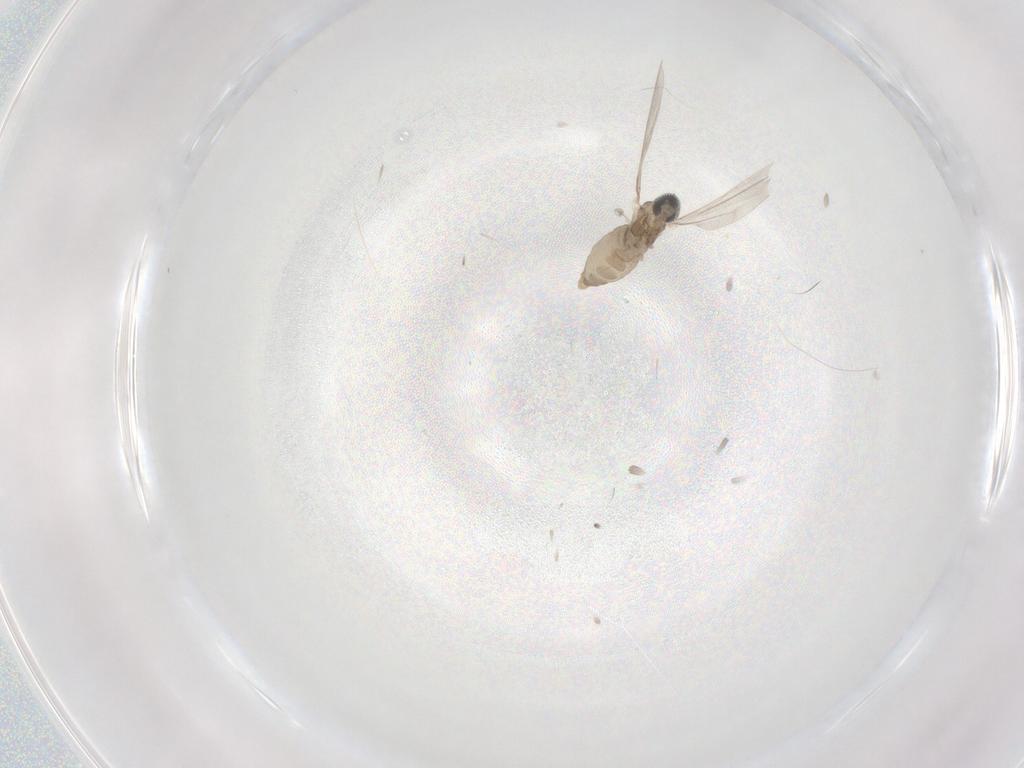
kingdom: Animalia
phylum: Arthropoda
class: Insecta
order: Diptera
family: Cecidomyiidae
